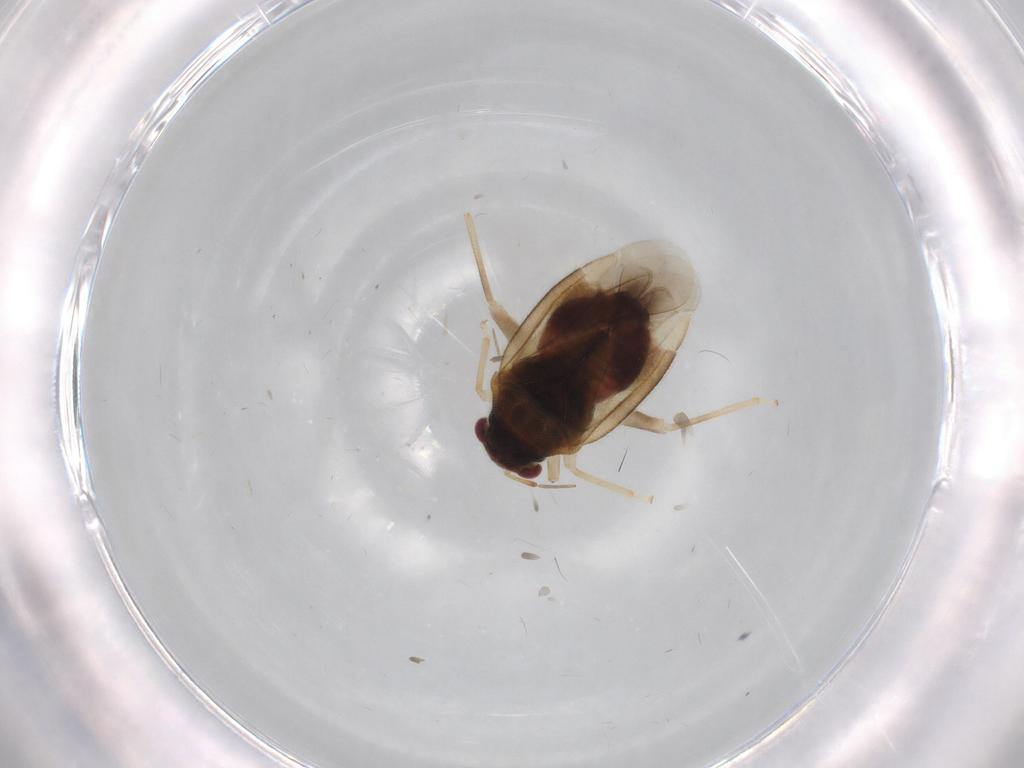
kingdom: Animalia
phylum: Arthropoda
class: Insecta
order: Hemiptera
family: Miridae
